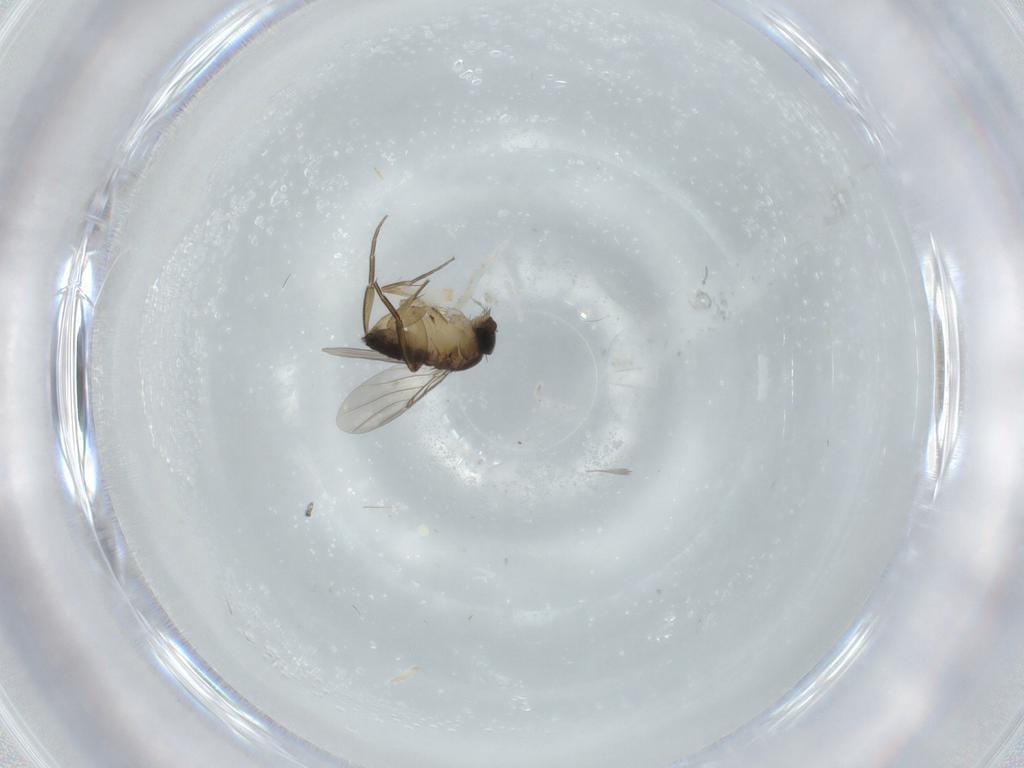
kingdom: Animalia
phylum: Arthropoda
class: Insecta
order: Diptera
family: Phoridae
